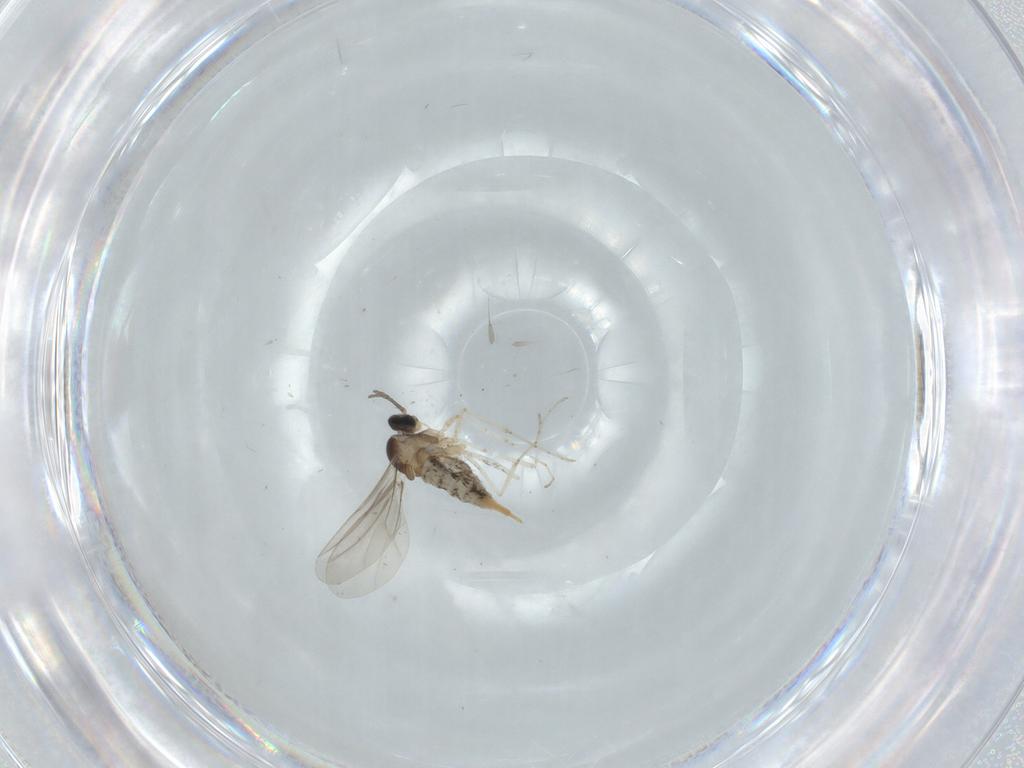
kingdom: Animalia
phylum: Arthropoda
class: Insecta
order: Diptera
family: Cecidomyiidae
